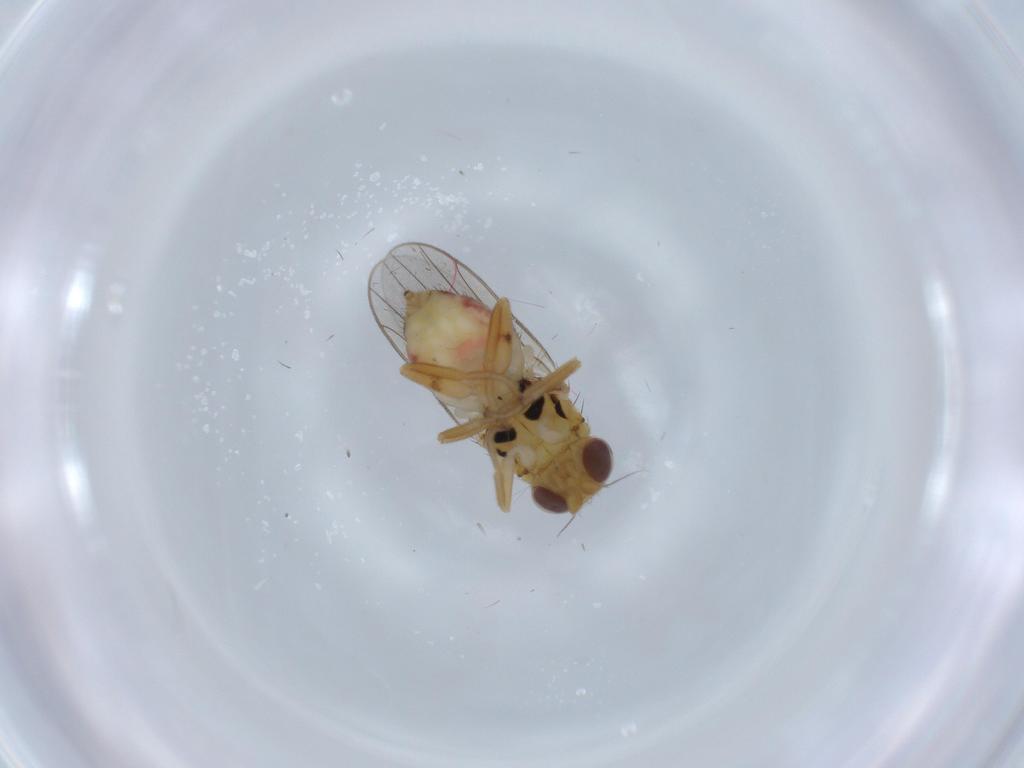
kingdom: Animalia
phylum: Arthropoda
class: Insecta
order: Diptera
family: Chloropidae
